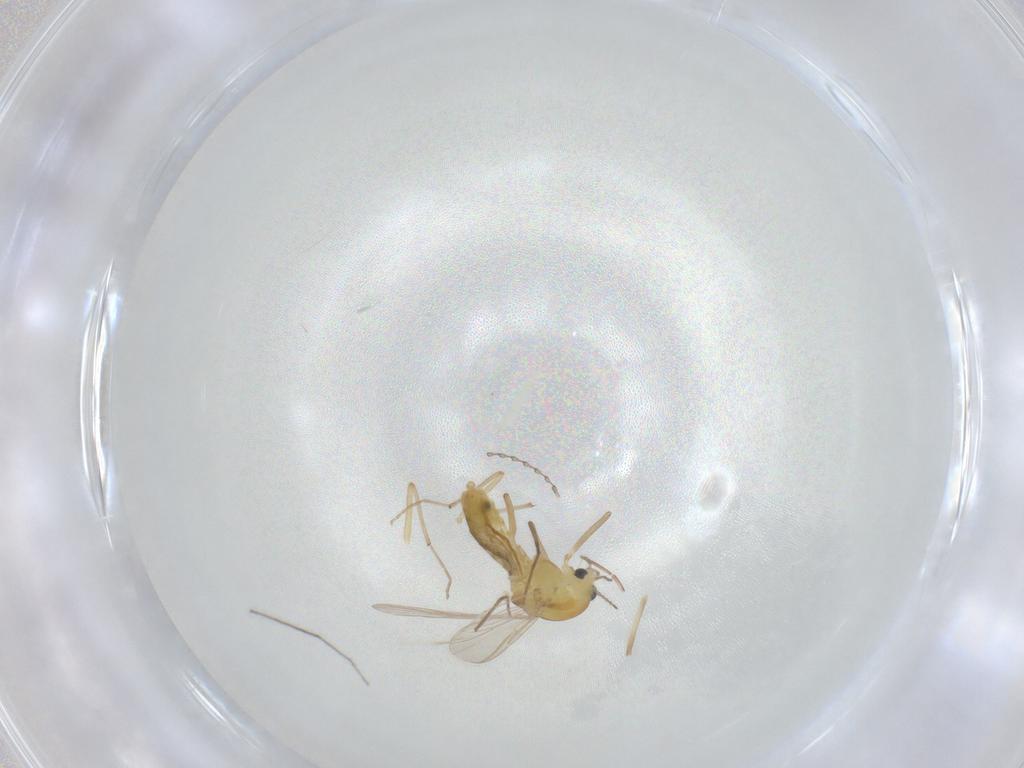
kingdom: Animalia
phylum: Arthropoda
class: Insecta
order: Diptera
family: Chironomidae
